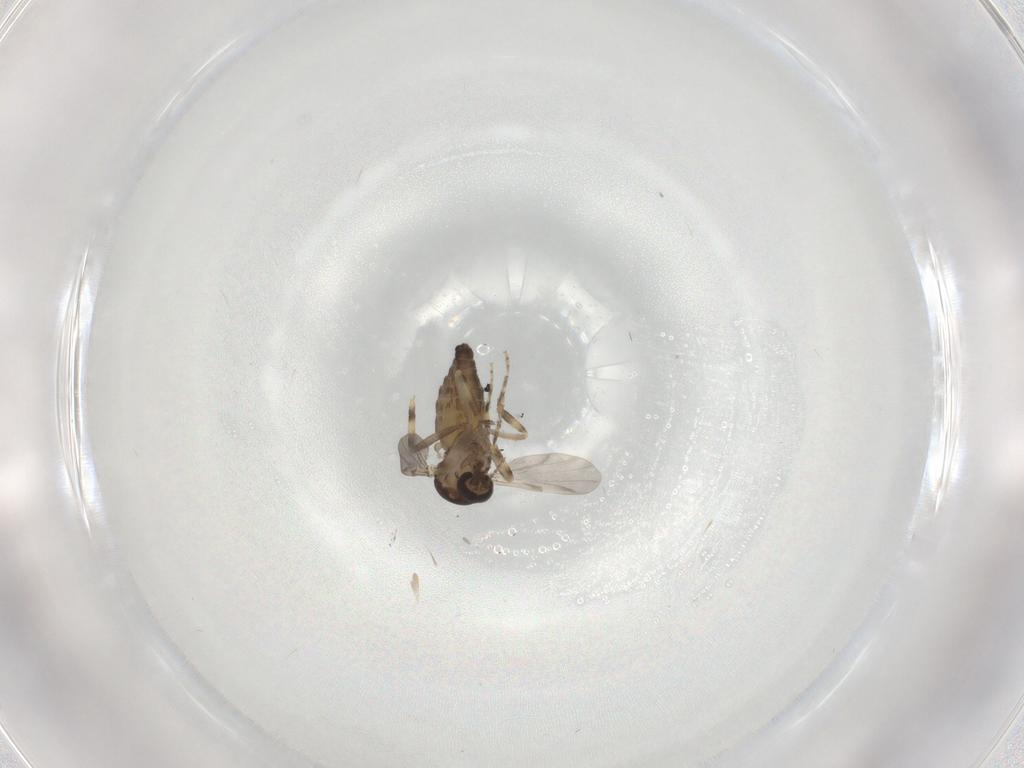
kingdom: Animalia
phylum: Arthropoda
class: Insecta
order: Diptera
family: Ceratopogonidae
